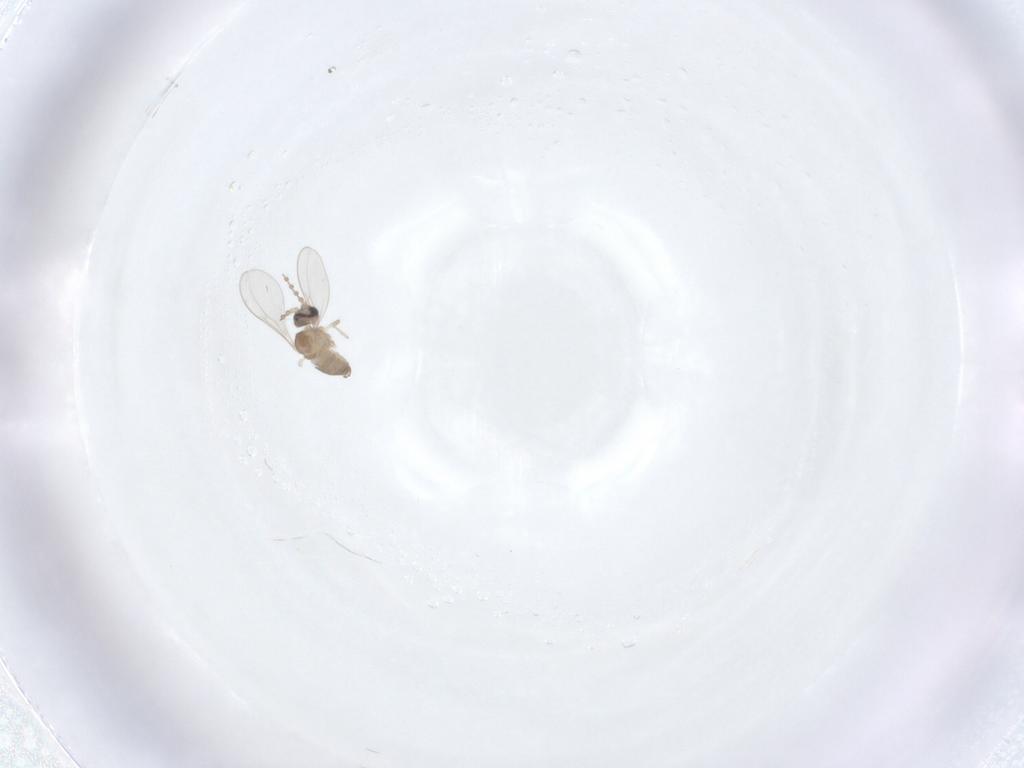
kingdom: Animalia
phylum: Arthropoda
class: Insecta
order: Diptera
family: Cecidomyiidae
